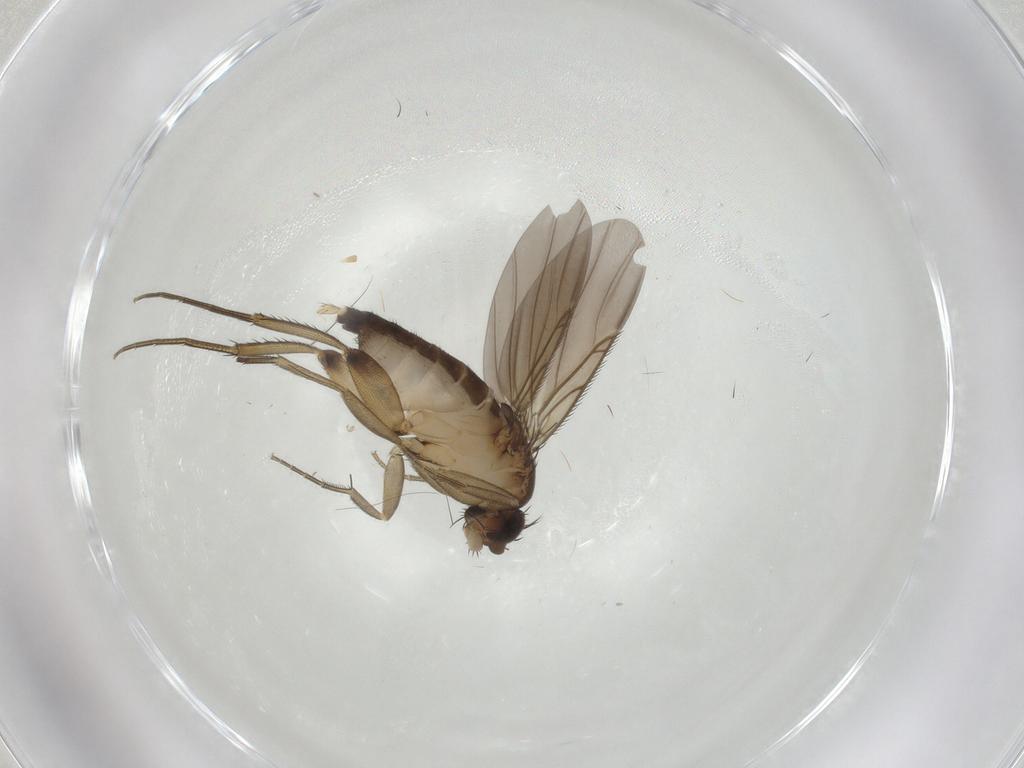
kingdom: Animalia
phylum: Arthropoda
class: Insecta
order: Diptera
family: Phoridae
